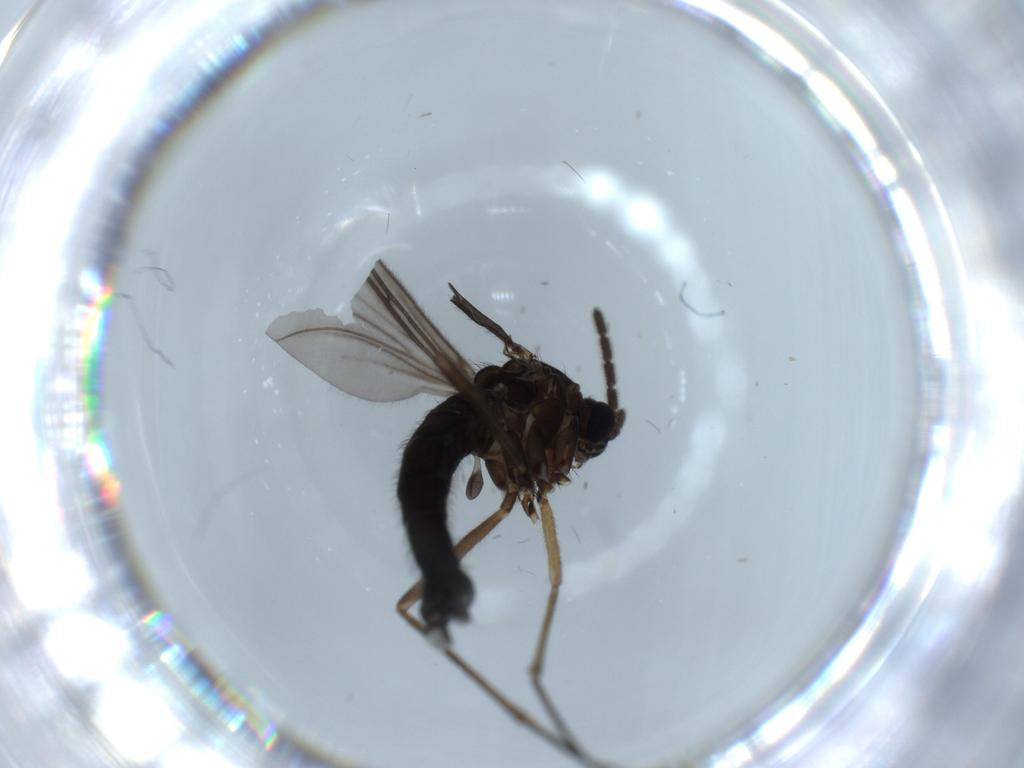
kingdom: Animalia
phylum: Arthropoda
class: Insecta
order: Diptera
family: Sciaridae
